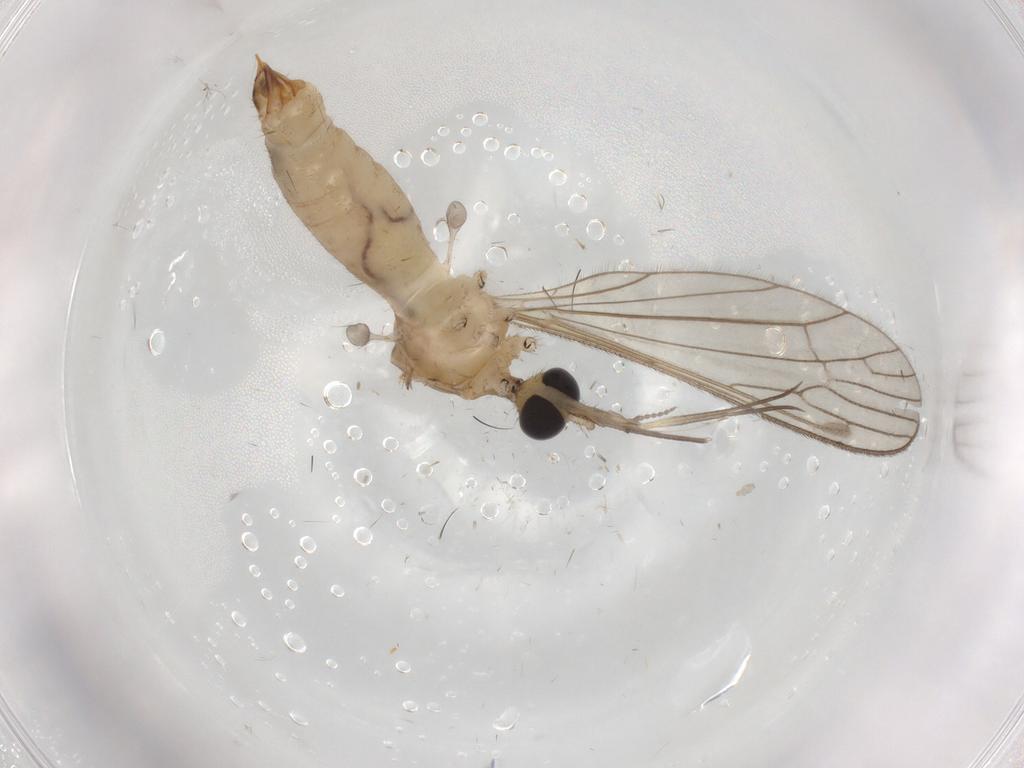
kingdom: Animalia
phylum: Arthropoda
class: Insecta
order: Diptera
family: Limoniidae
